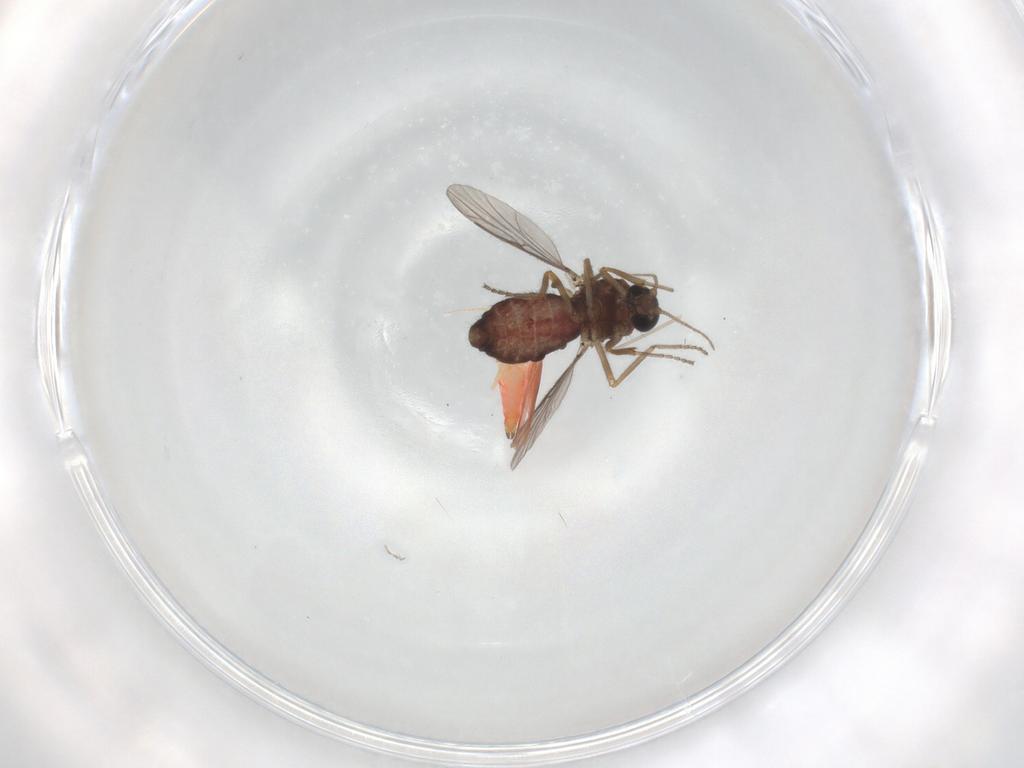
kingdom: Animalia
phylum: Arthropoda
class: Insecta
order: Diptera
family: Ceratopogonidae
